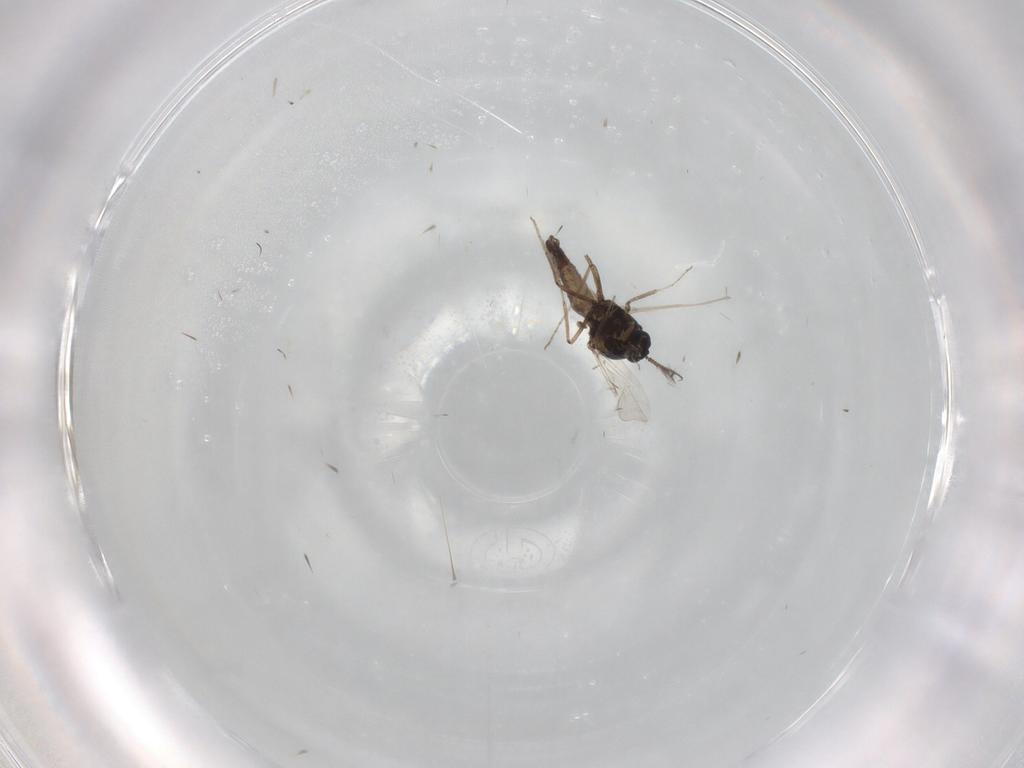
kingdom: Animalia
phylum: Arthropoda
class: Insecta
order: Diptera
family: Ceratopogonidae
